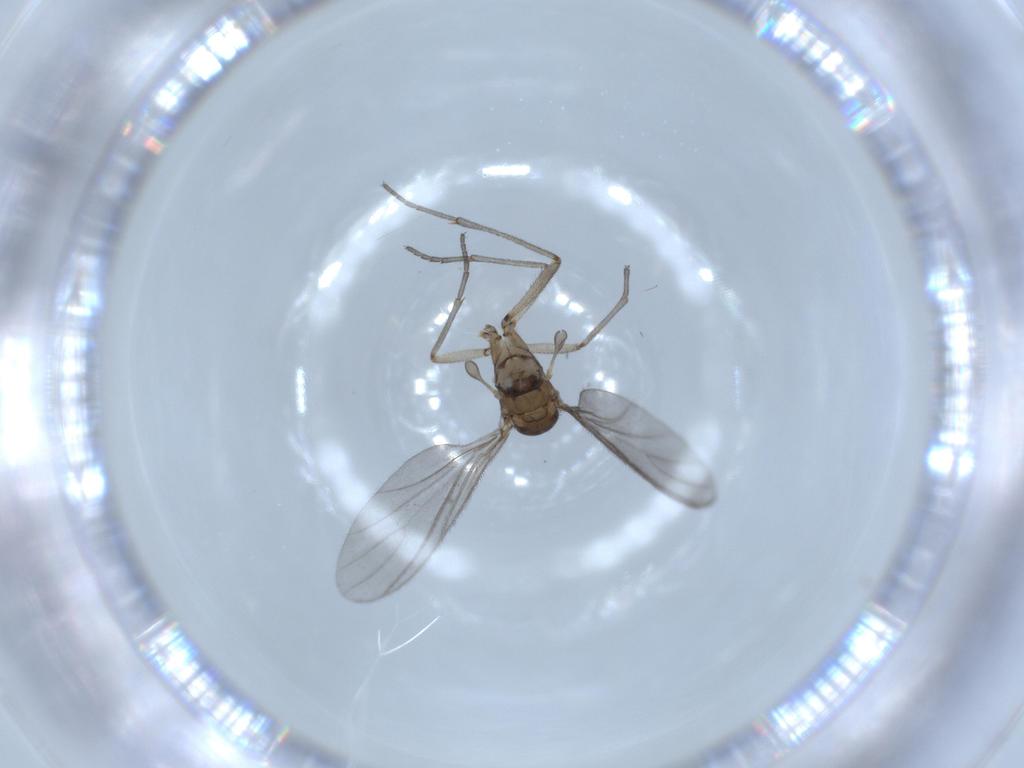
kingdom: Animalia
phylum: Arthropoda
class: Insecta
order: Diptera
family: Sciaridae
